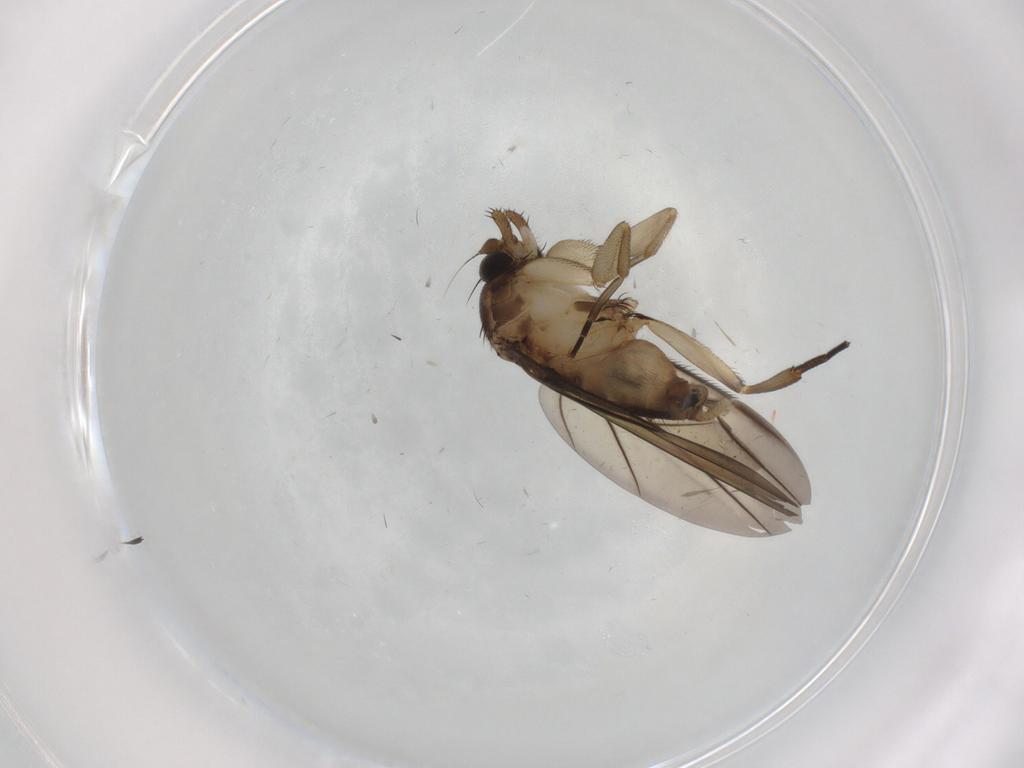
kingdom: Animalia
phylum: Arthropoda
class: Insecta
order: Diptera
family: Phoridae
